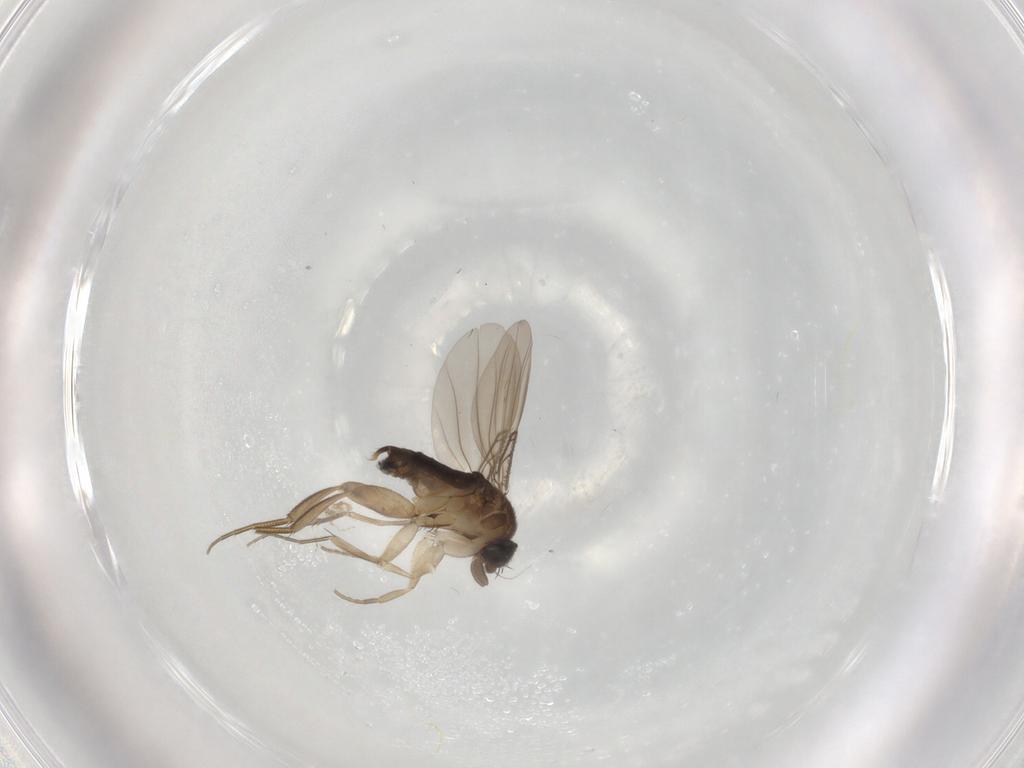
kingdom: Animalia
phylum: Arthropoda
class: Insecta
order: Diptera
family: Phoridae
